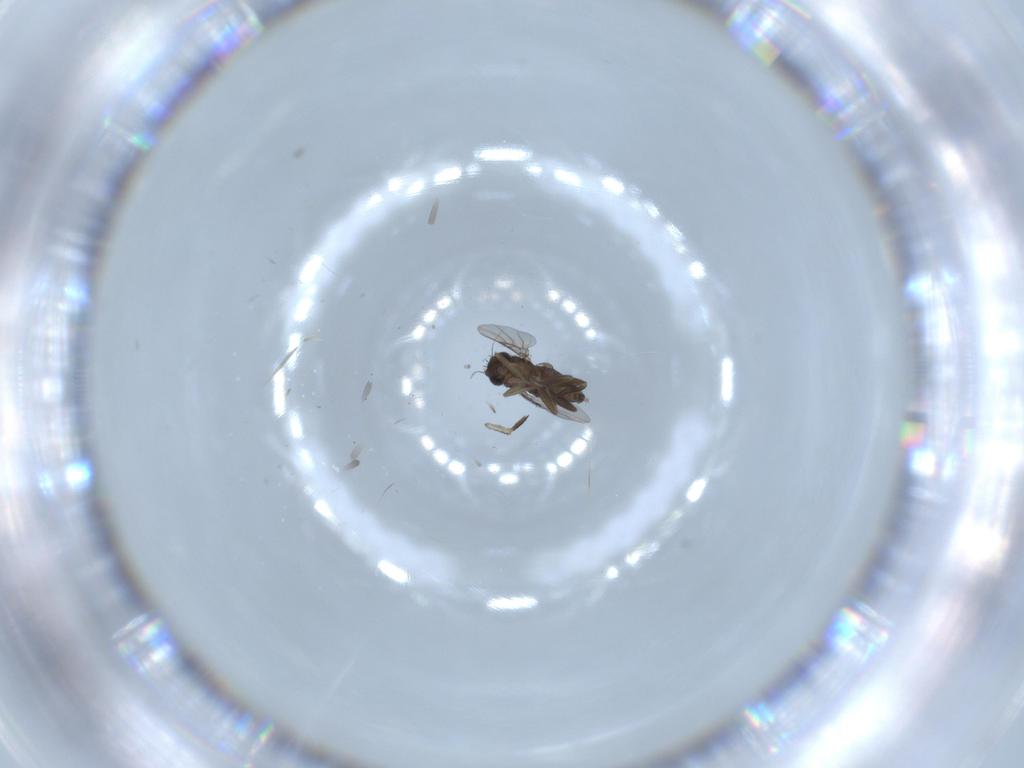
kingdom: Animalia
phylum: Arthropoda
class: Insecta
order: Diptera
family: Phoridae
